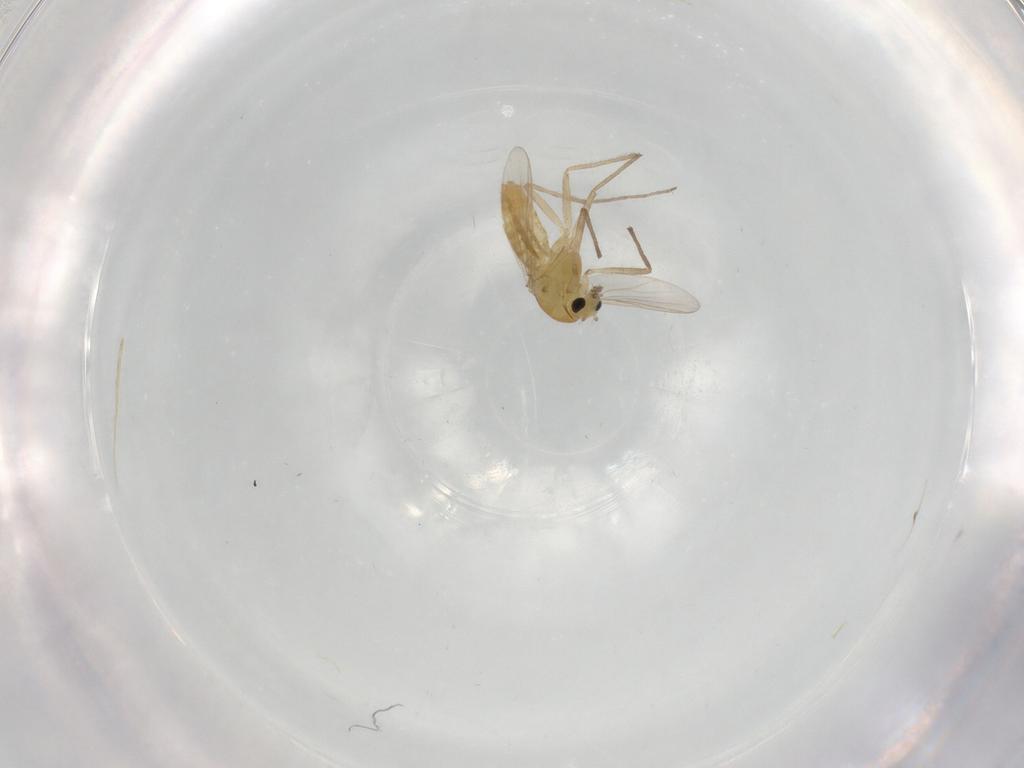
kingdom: Animalia
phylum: Arthropoda
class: Insecta
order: Diptera
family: Chironomidae
